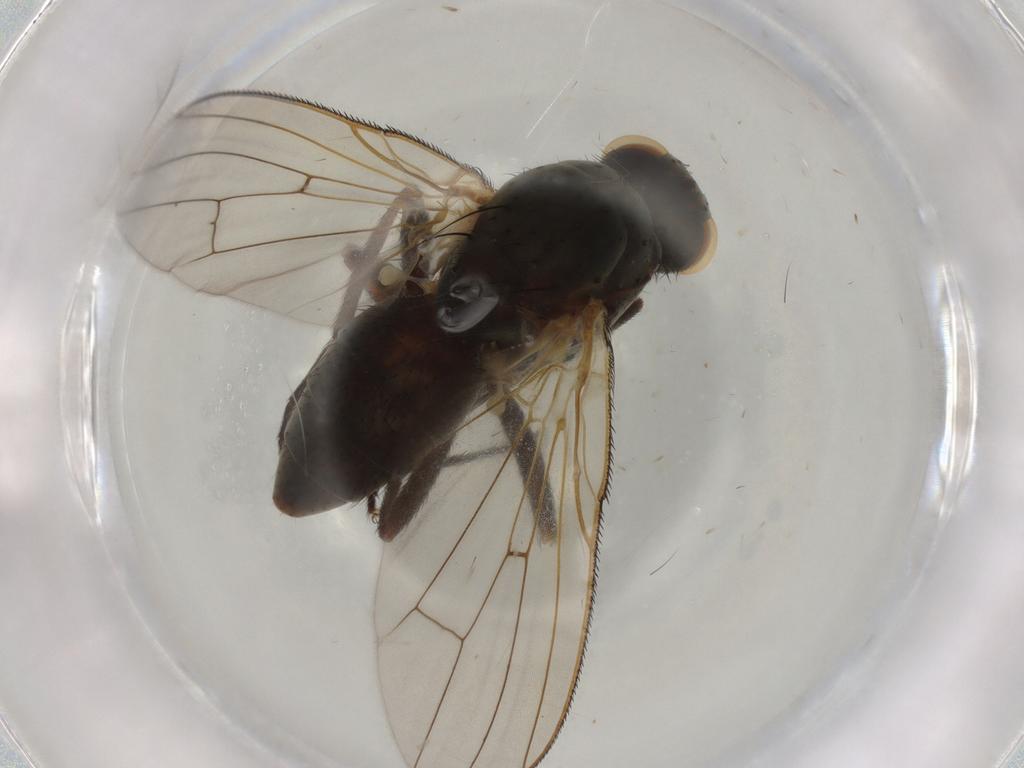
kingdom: Animalia
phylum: Arthropoda
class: Insecta
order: Diptera
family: Anthomyiidae
